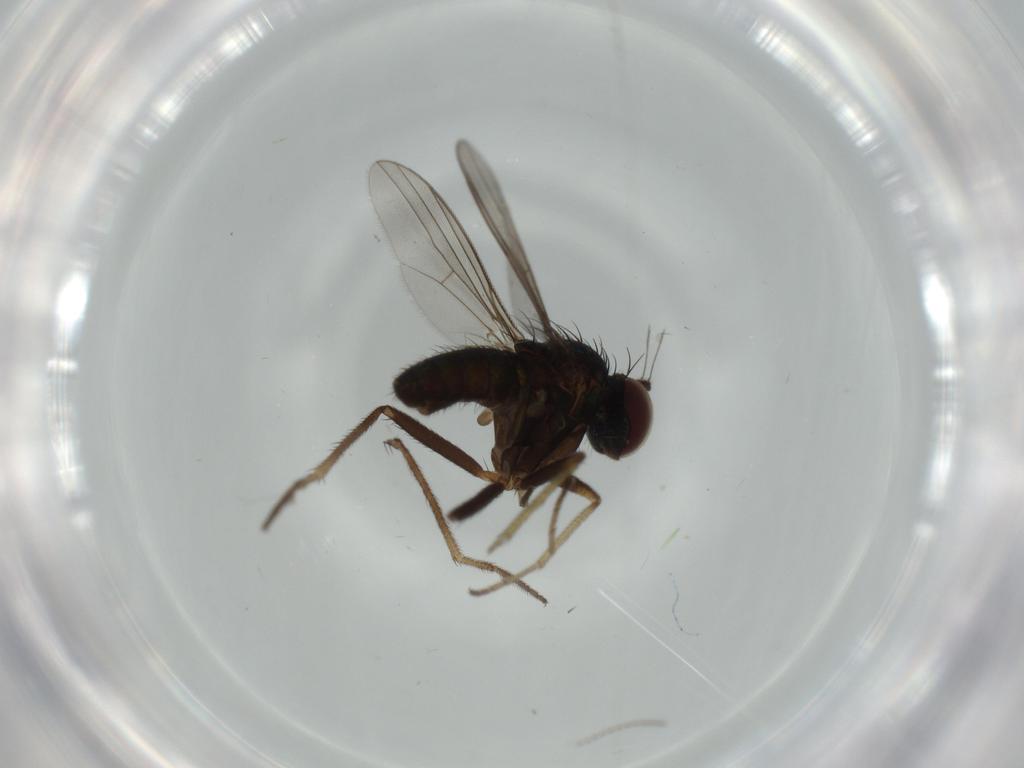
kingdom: Animalia
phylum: Arthropoda
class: Insecta
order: Diptera
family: Cecidomyiidae
